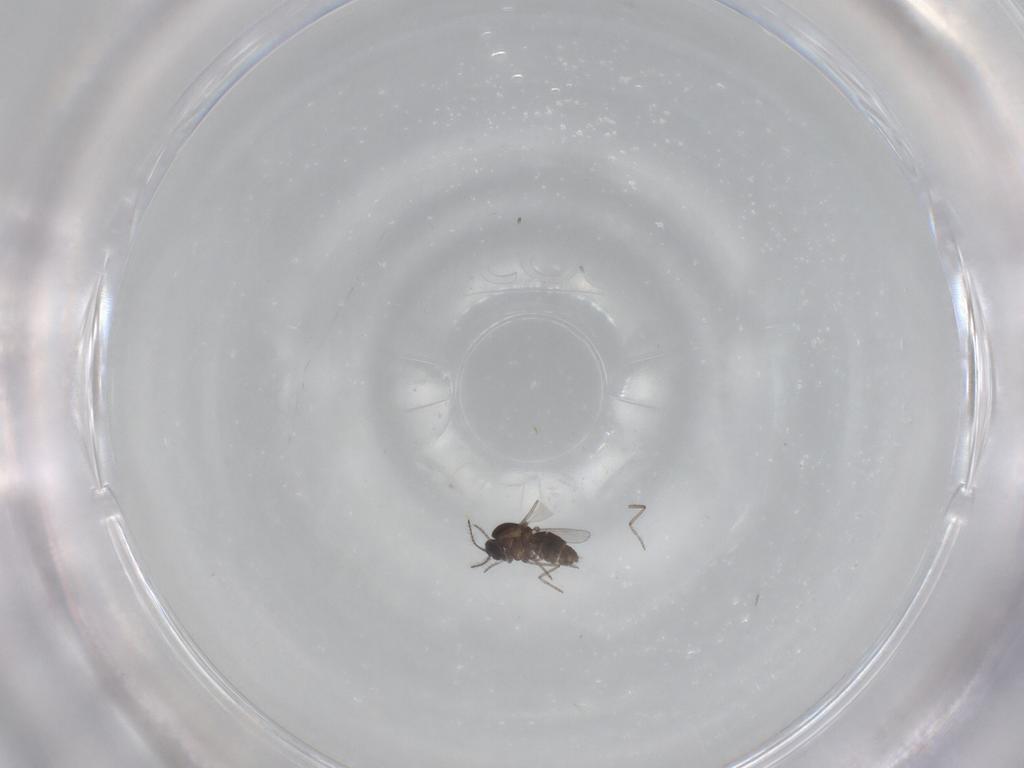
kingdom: Animalia
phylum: Arthropoda
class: Insecta
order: Diptera
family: Ceratopogonidae
